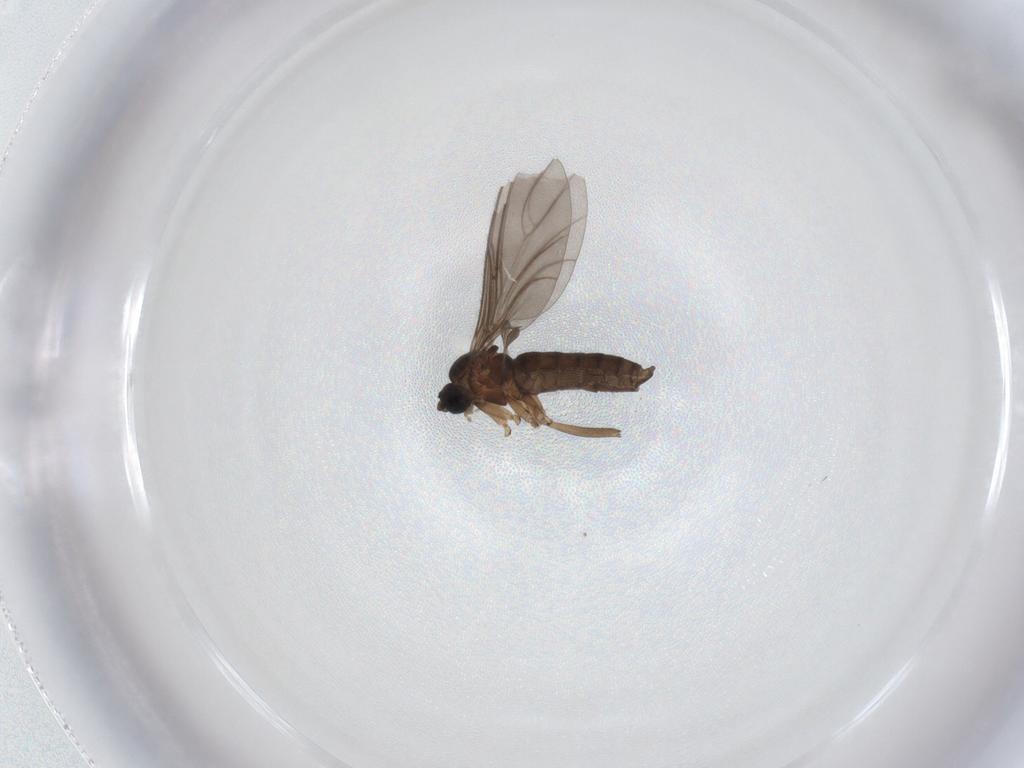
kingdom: Animalia
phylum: Arthropoda
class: Insecta
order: Diptera
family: Sciaridae
